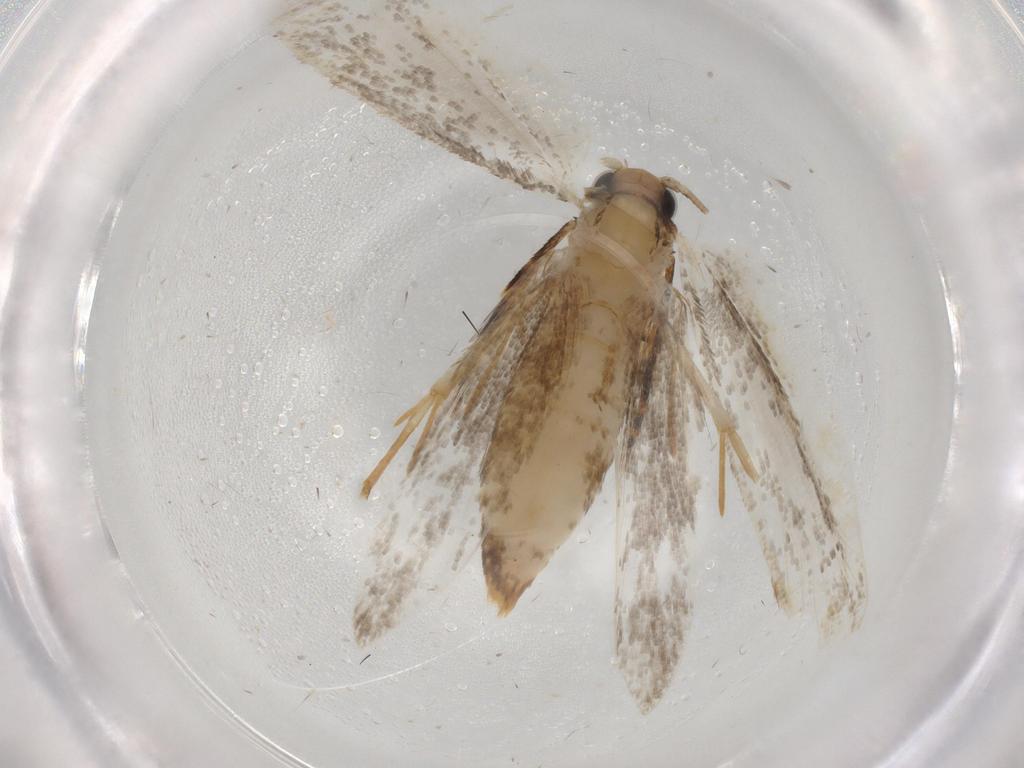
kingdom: Animalia
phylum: Arthropoda
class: Insecta
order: Lepidoptera
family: Tineidae
